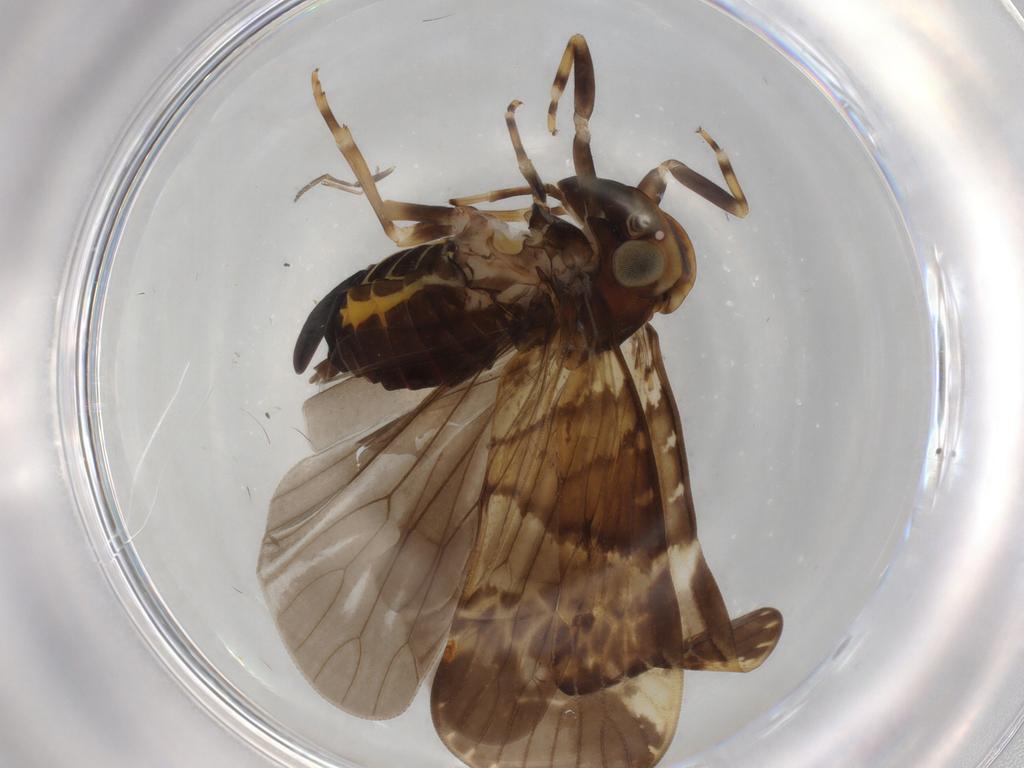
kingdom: Animalia
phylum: Arthropoda
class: Insecta
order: Hemiptera
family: Cixiidae
